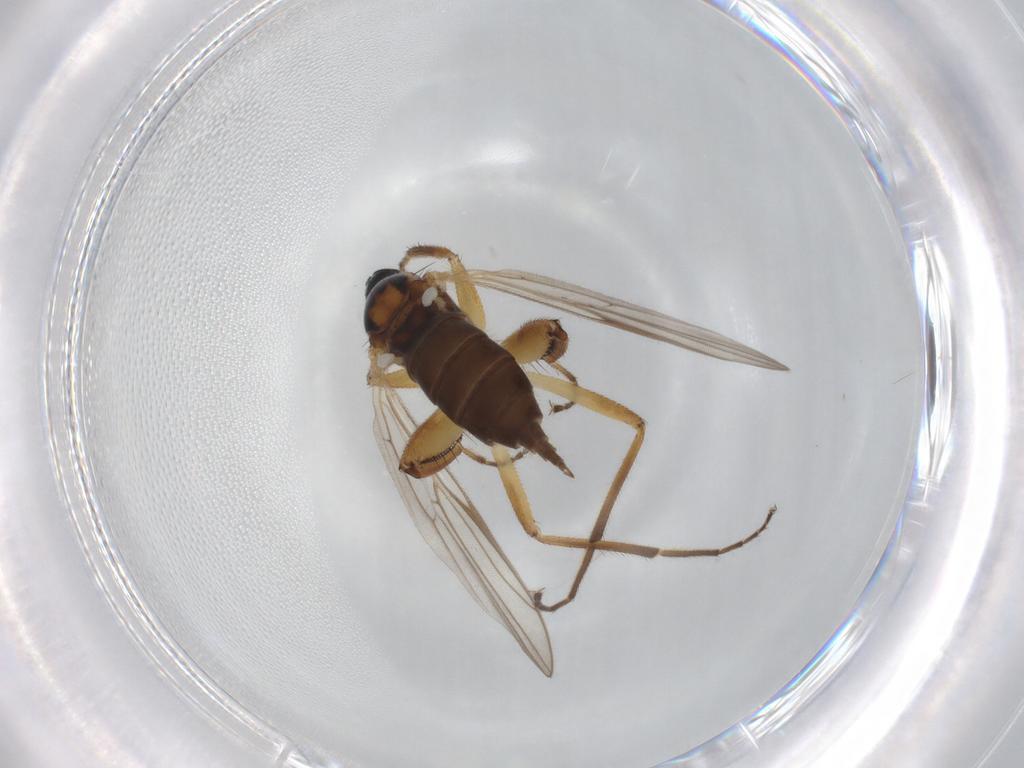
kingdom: Animalia
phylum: Arthropoda
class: Insecta
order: Diptera
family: Hybotidae
